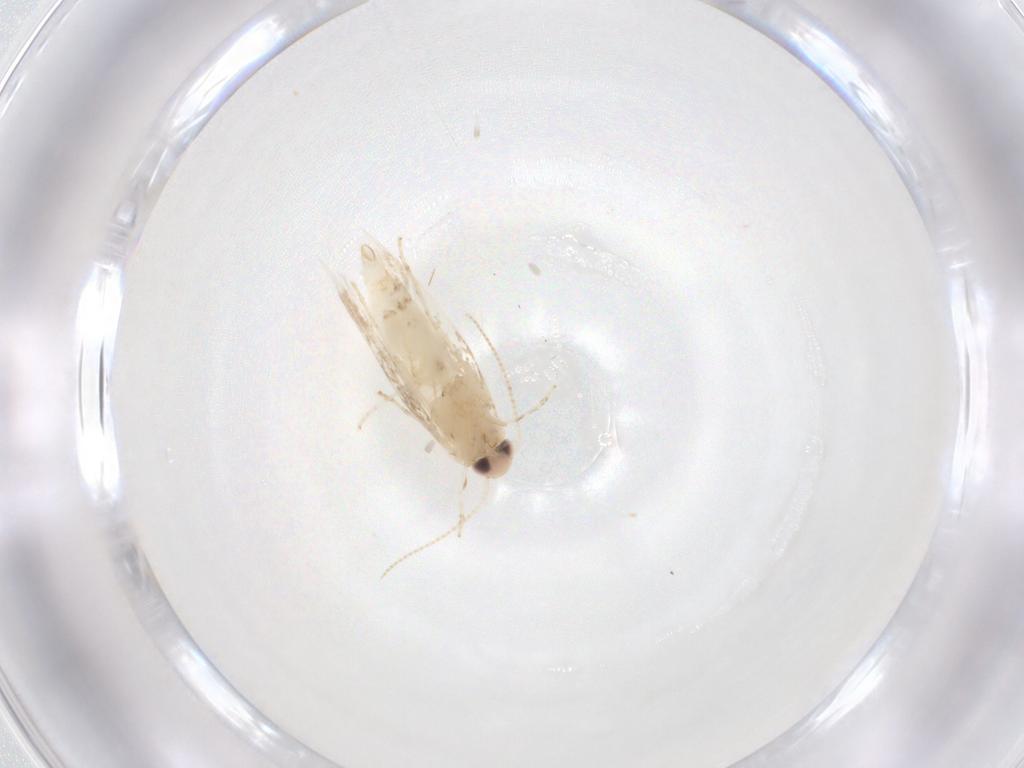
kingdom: Animalia
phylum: Arthropoda
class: Insecta
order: Lepidoptera
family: Gracillariidae
